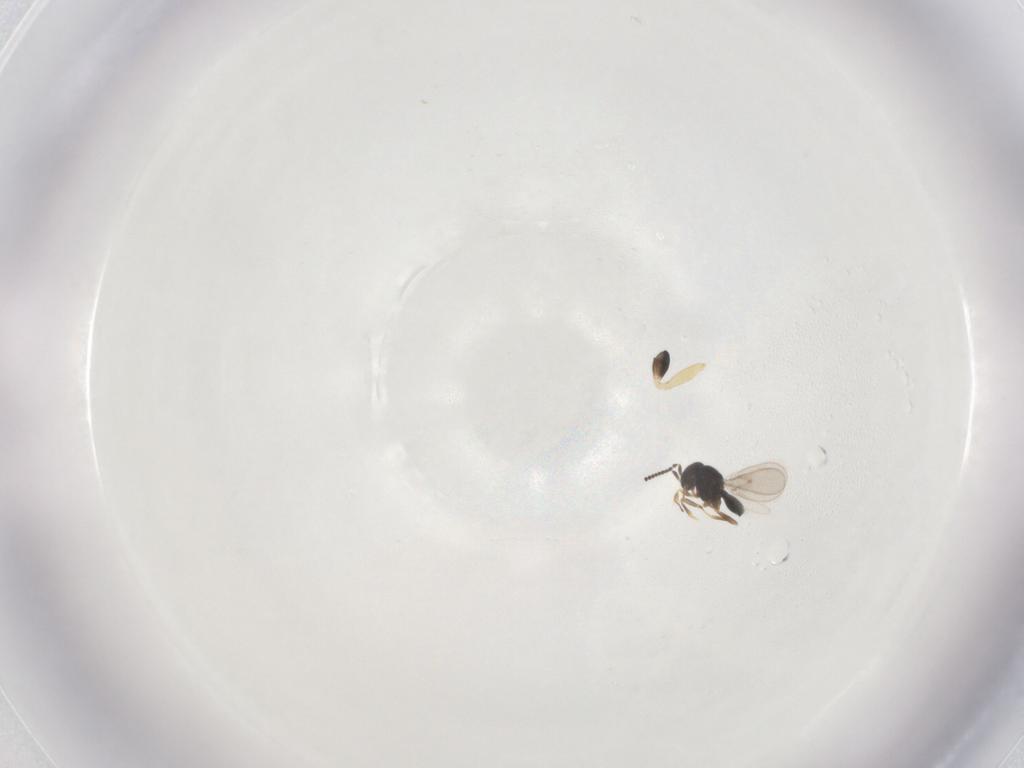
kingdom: Animalia
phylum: Arthropoda
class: Insecta
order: Hymenoptera
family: Scelionidae
